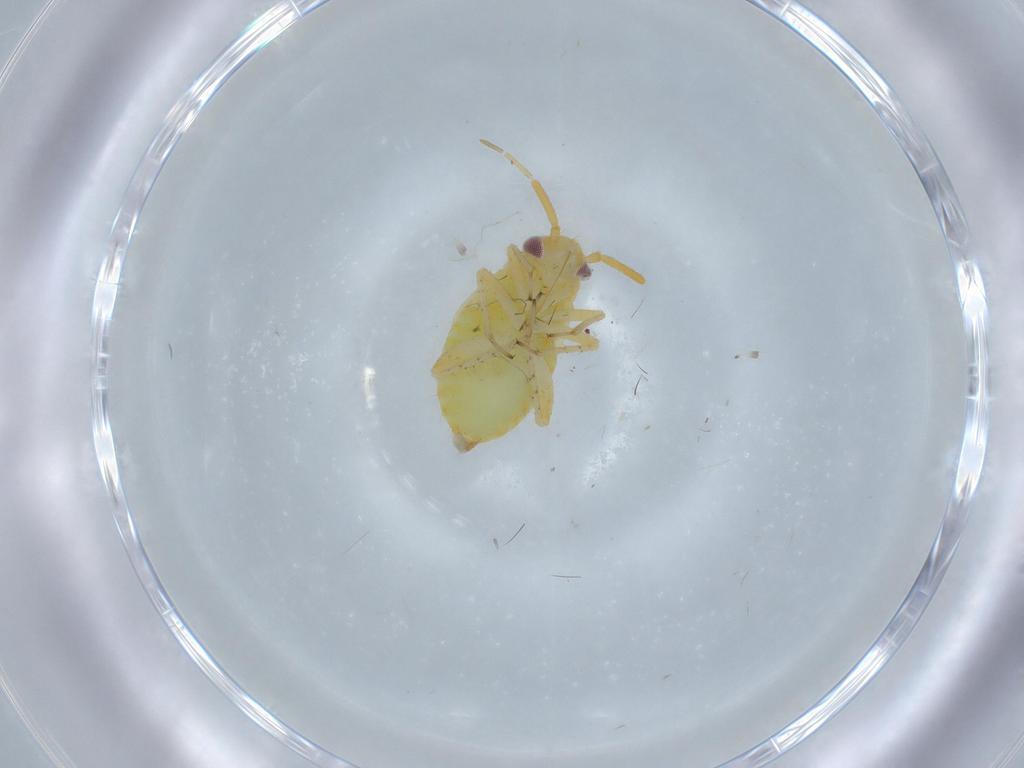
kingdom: Animalia
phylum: Arthropoda
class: Insecta
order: Hemiptera
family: Miridae
